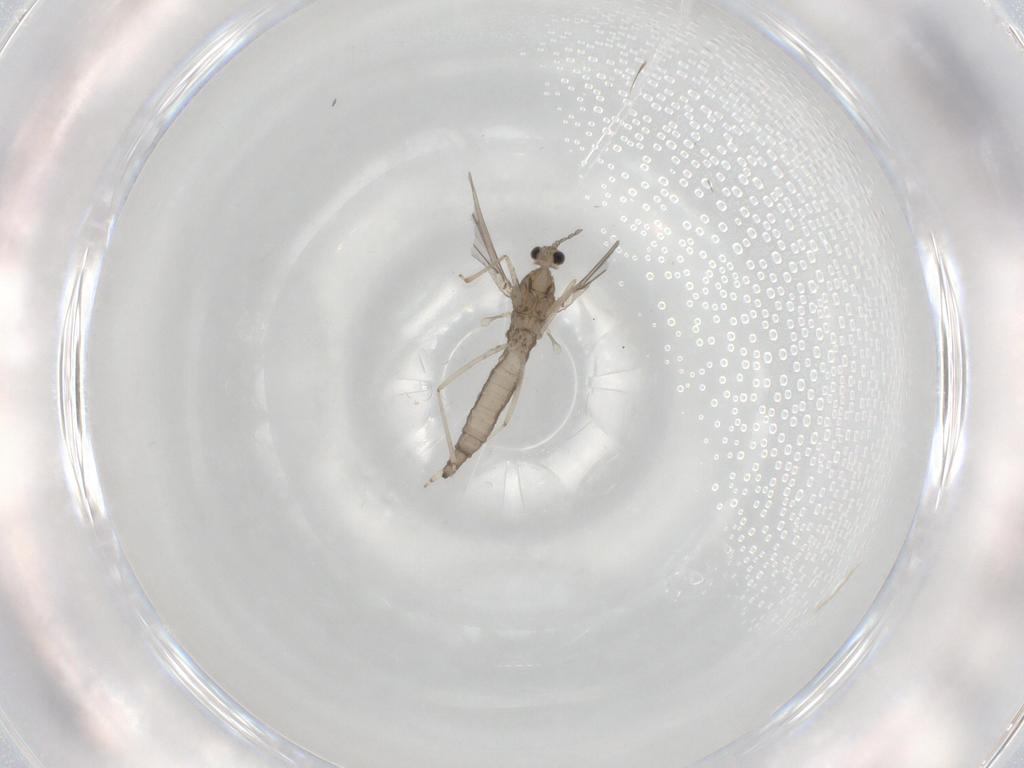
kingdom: Animalia
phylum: Arthropoda
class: Insecta
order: Diptera
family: Cecidomyiidae
